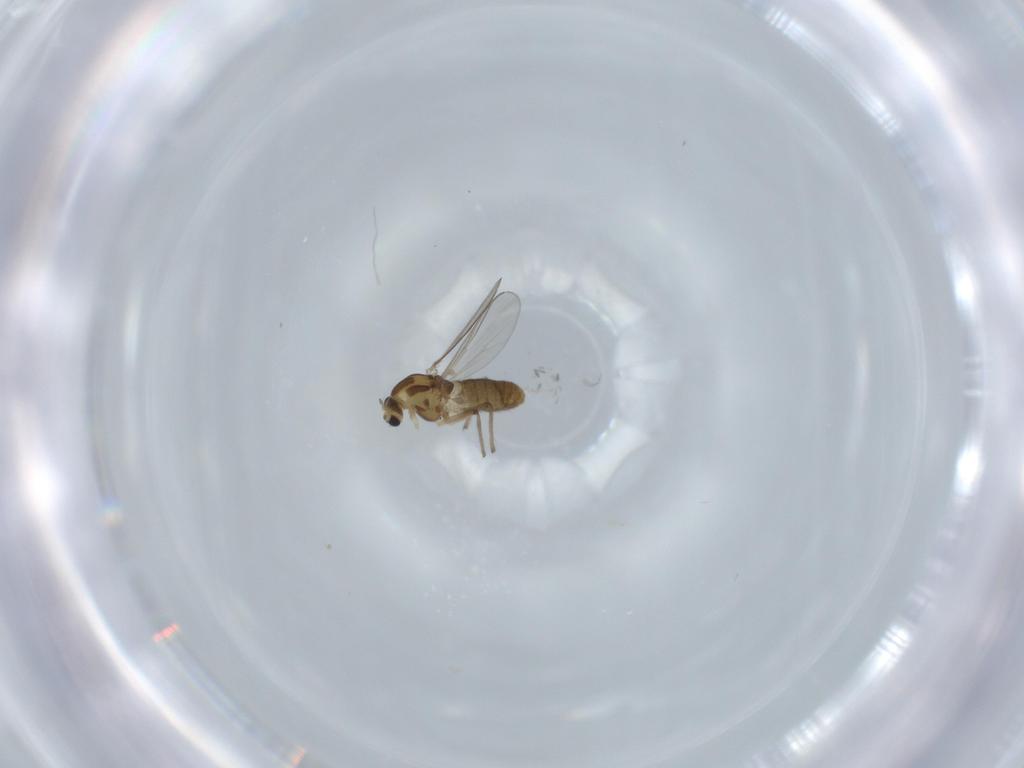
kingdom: Animalia
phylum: Arthropoda
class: Insecta
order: Diptera
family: Chironomidae
